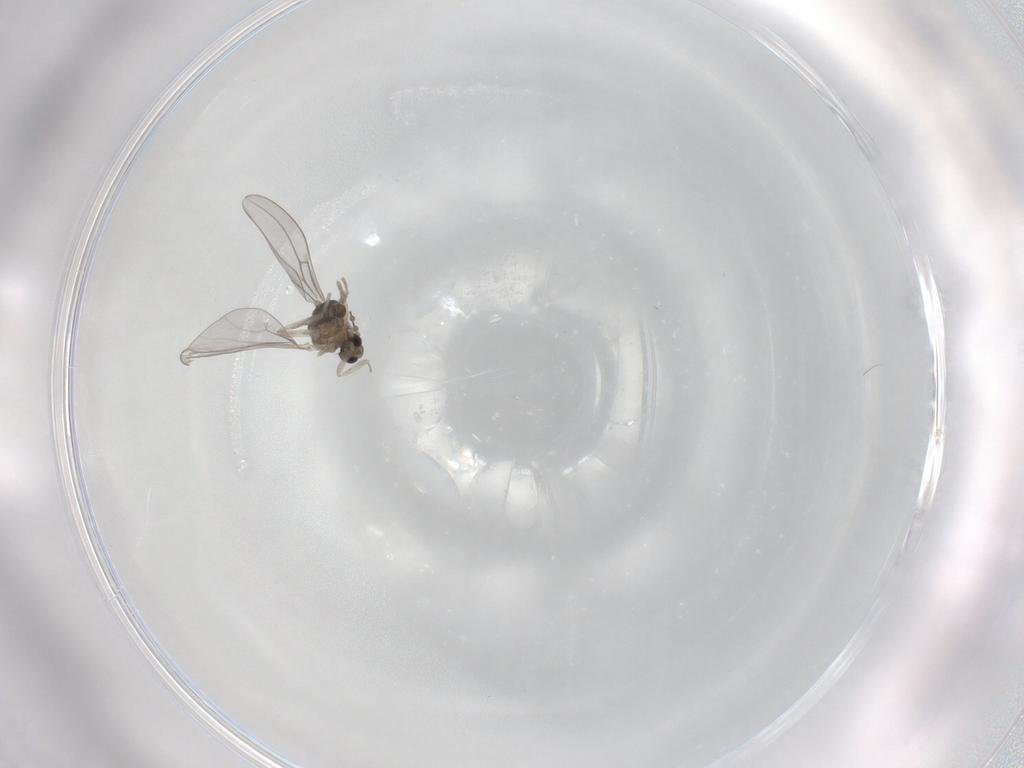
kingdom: Animalia
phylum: Arthropoda
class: Insecta
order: Diptera
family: Cecidomyiidae
